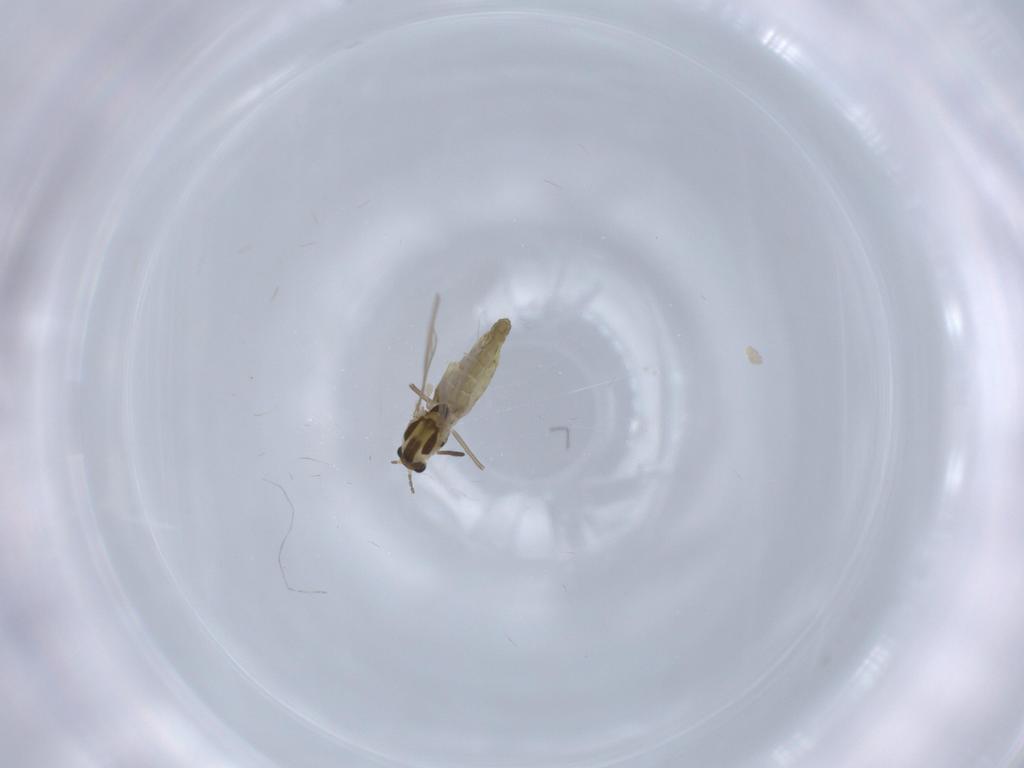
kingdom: Animalia
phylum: Arthropoda
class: Insecta
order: Diptera
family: Chironomidae
